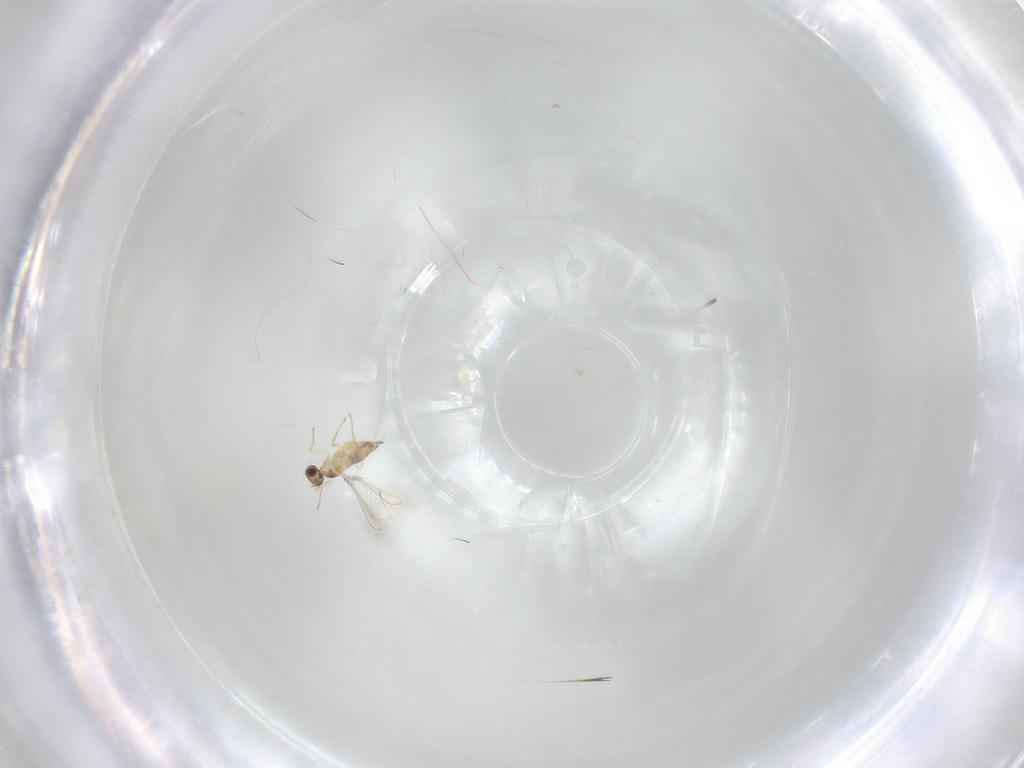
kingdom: Animalia
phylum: Arthropoda
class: Insecta
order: Hymenoptera
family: Mymaridae
